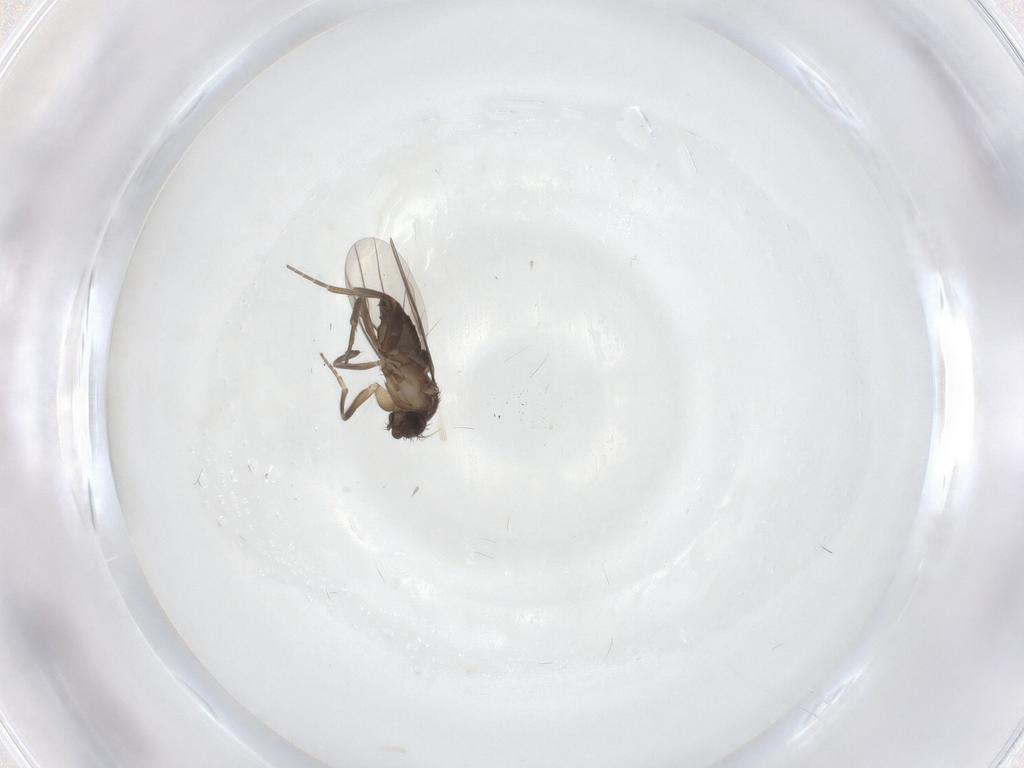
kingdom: Animalia
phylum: Arthropoda
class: Insecta
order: Diptera
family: Phoridae
